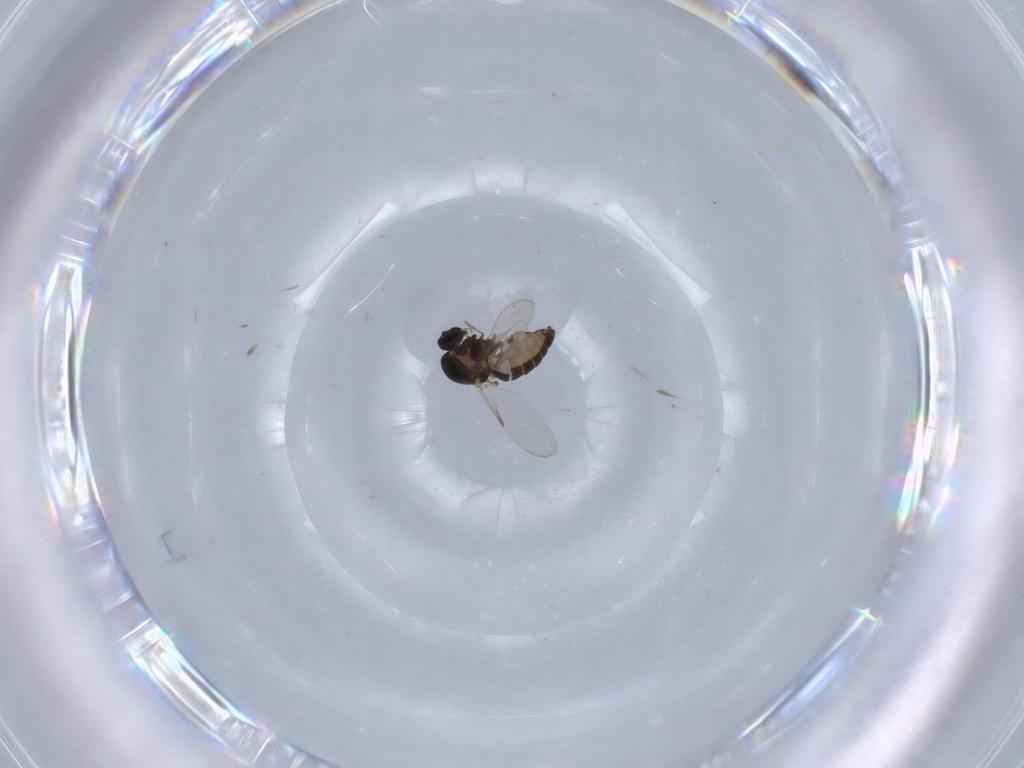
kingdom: Animalia
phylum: Arthropoda
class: Insecta
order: Diptera
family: Ceratopogonidae
